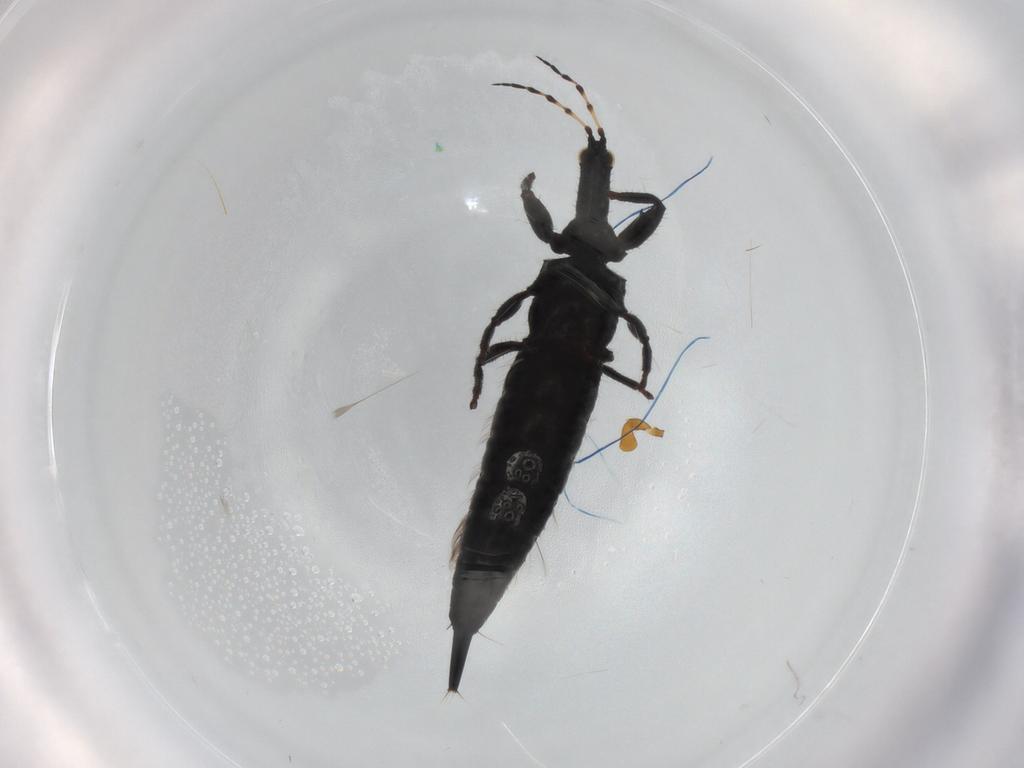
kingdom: Animalia
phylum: Arthropoda
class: Insecta
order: Thysanoptera
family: Phlaeothripidae
